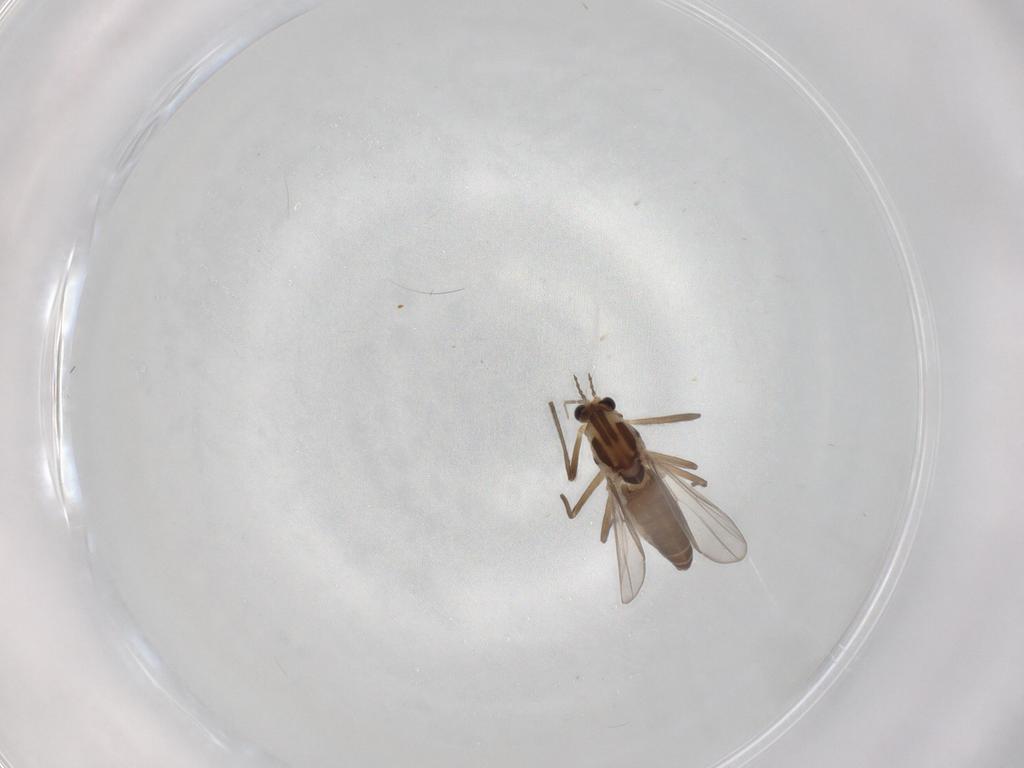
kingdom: Animalia
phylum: Arthropoda
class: Insecta
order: Diptera
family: Chironomidae
